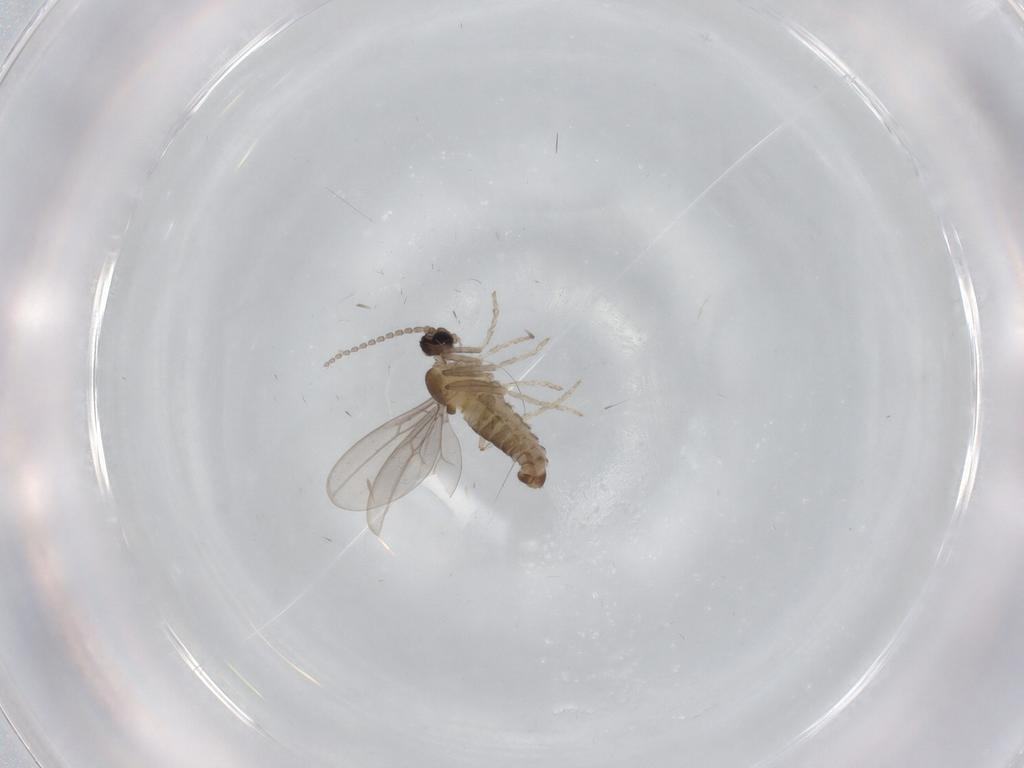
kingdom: Animalia
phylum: Arthropoda
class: Insecta
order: Diptera
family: Cecidomyiidae
